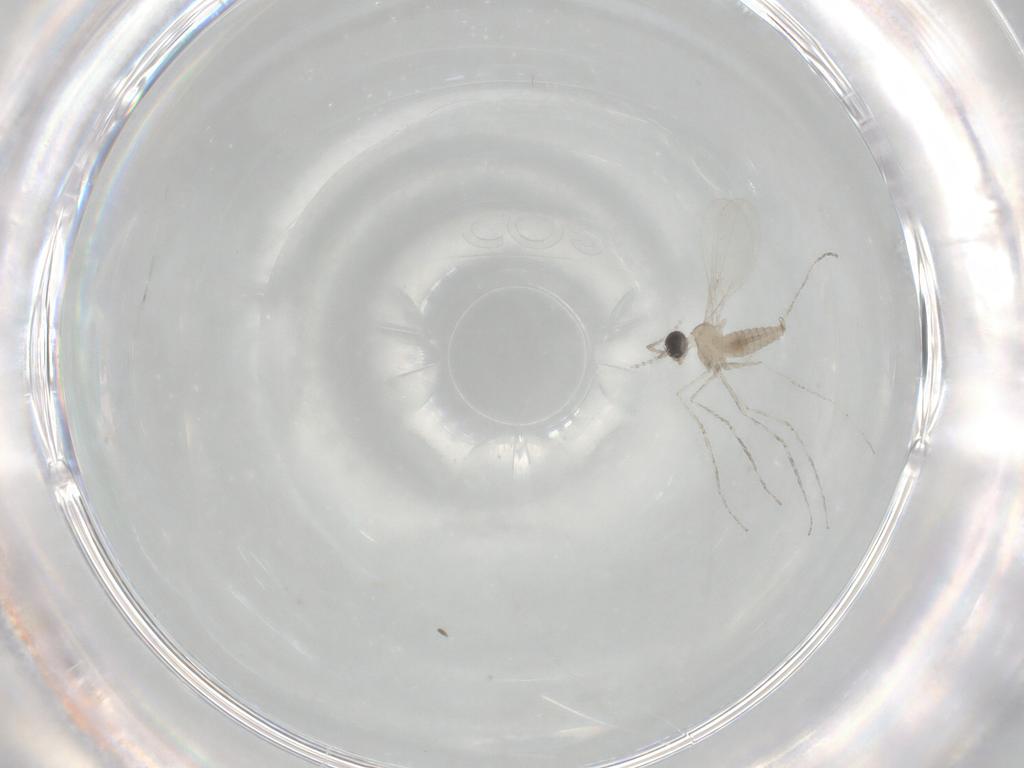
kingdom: Animalia
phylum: Arthropoda
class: Insecta
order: Diptera
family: Cecidomyiidae
